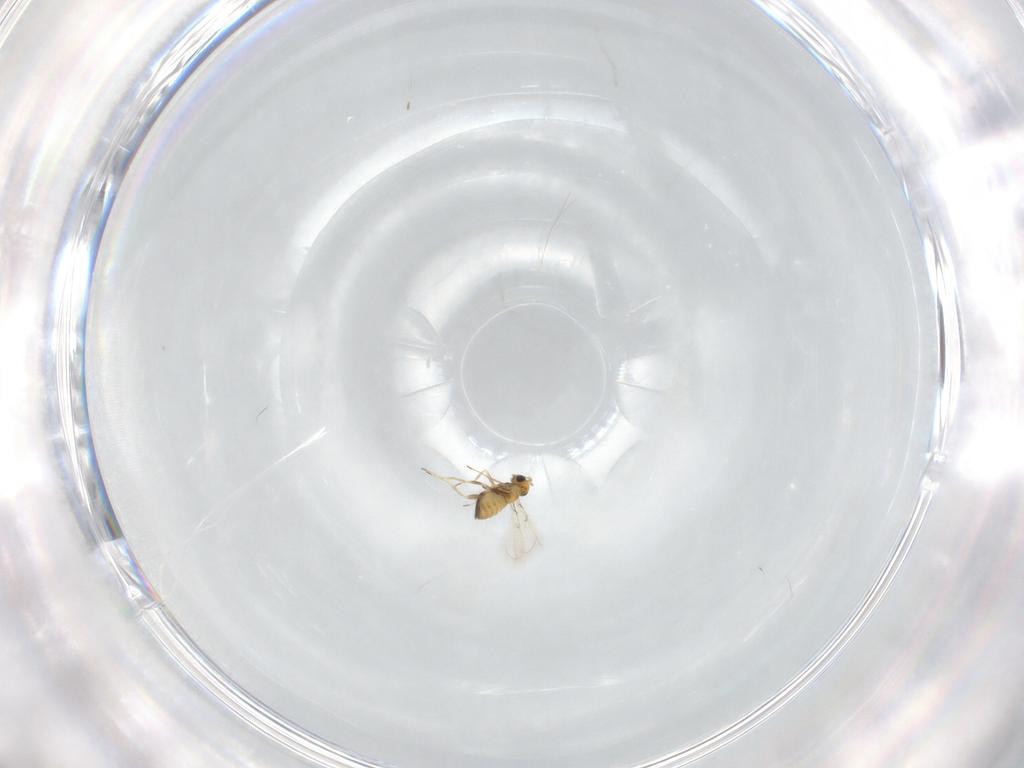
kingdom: Animalia
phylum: Arthropoda
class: Insecta
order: Hymenoptera
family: Trichogrammatidae
